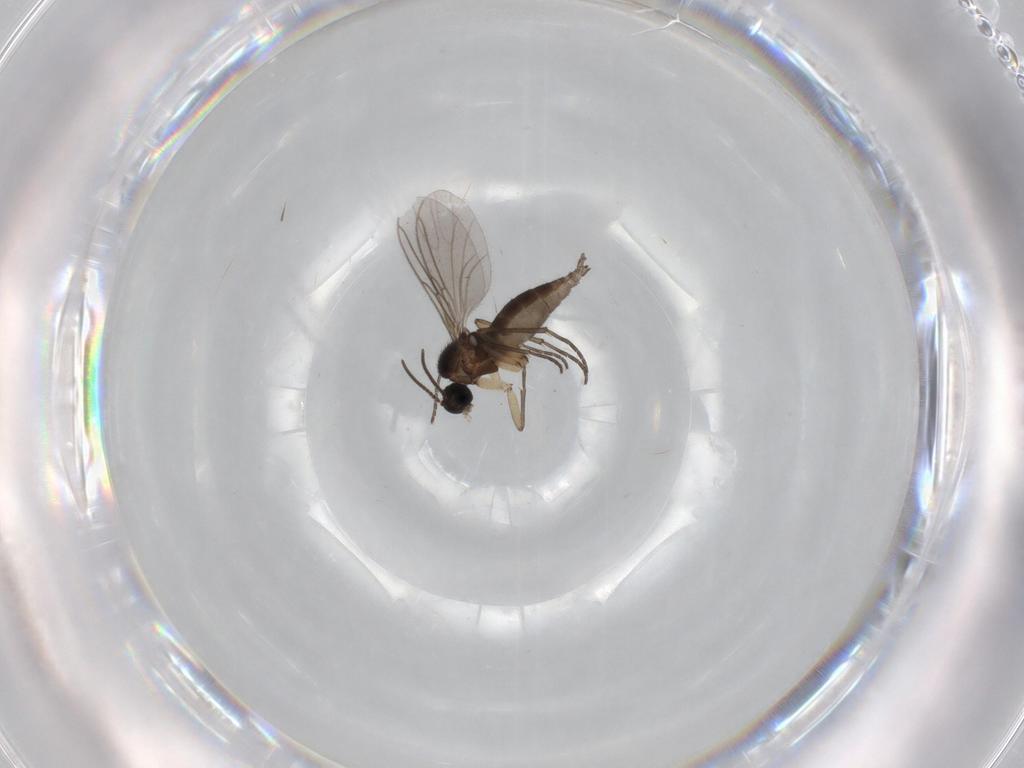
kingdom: Animalia
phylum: Arthropoda
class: Insecta
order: Diptera
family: Sciaridae
